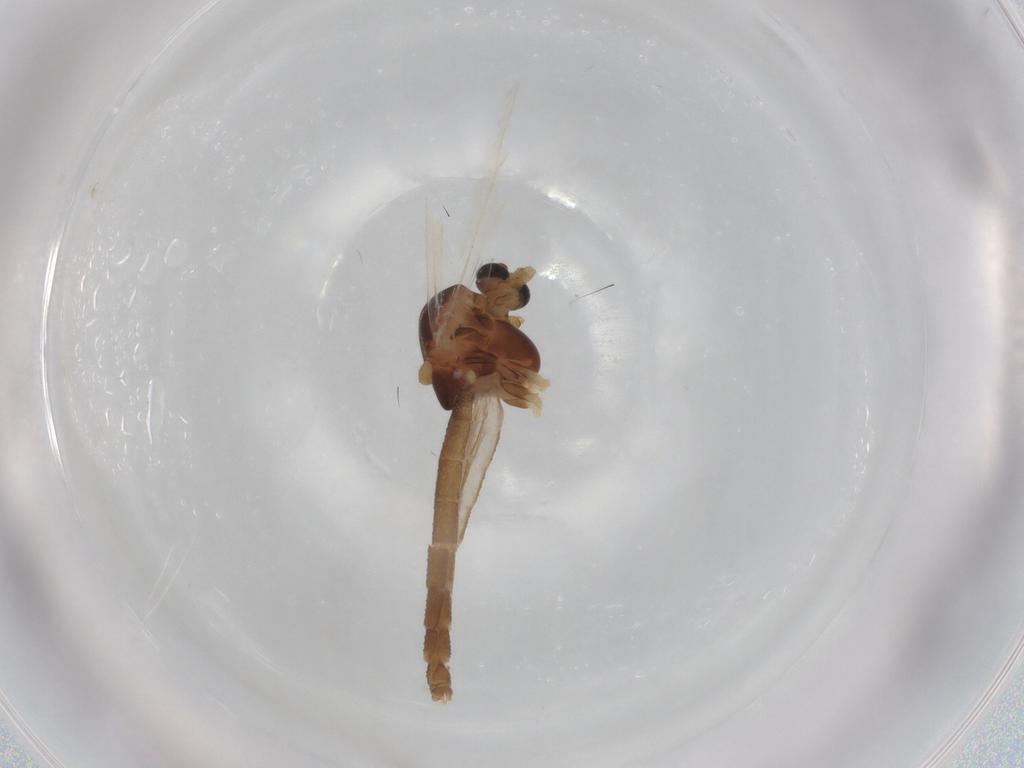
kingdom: Animalia
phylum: Arthropoda
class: Insecta
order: Diptera
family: Chironomidae
